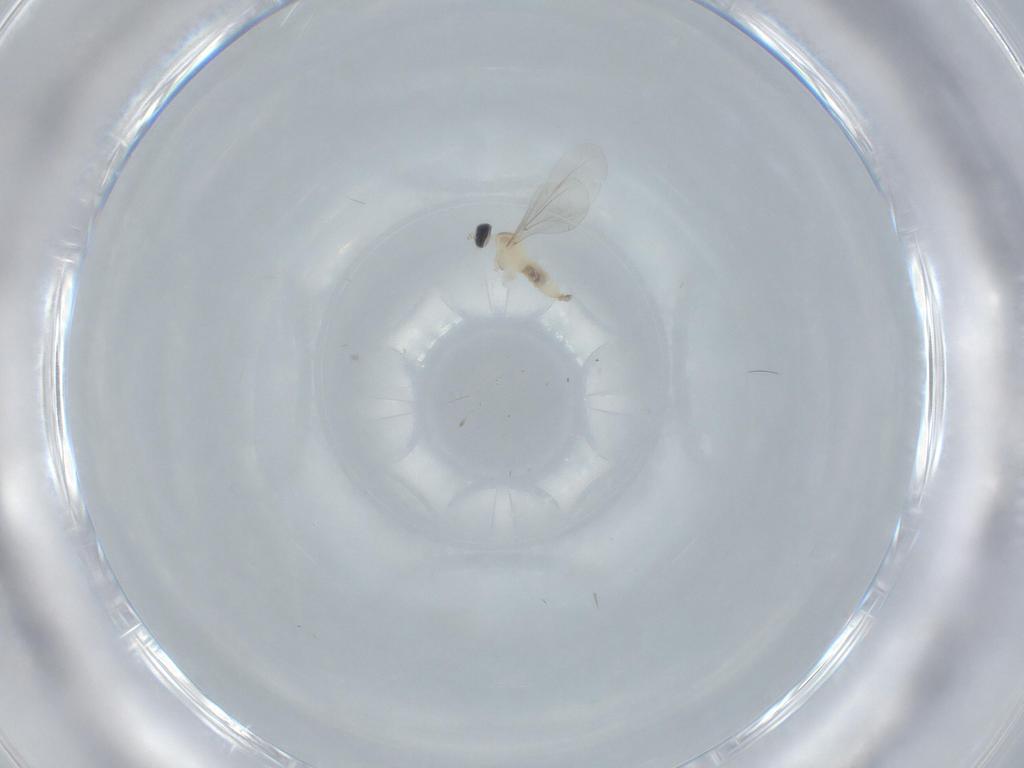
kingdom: Animalia
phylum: Arthropoda
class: Insecta
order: Diptera
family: Cecidomyiidae
